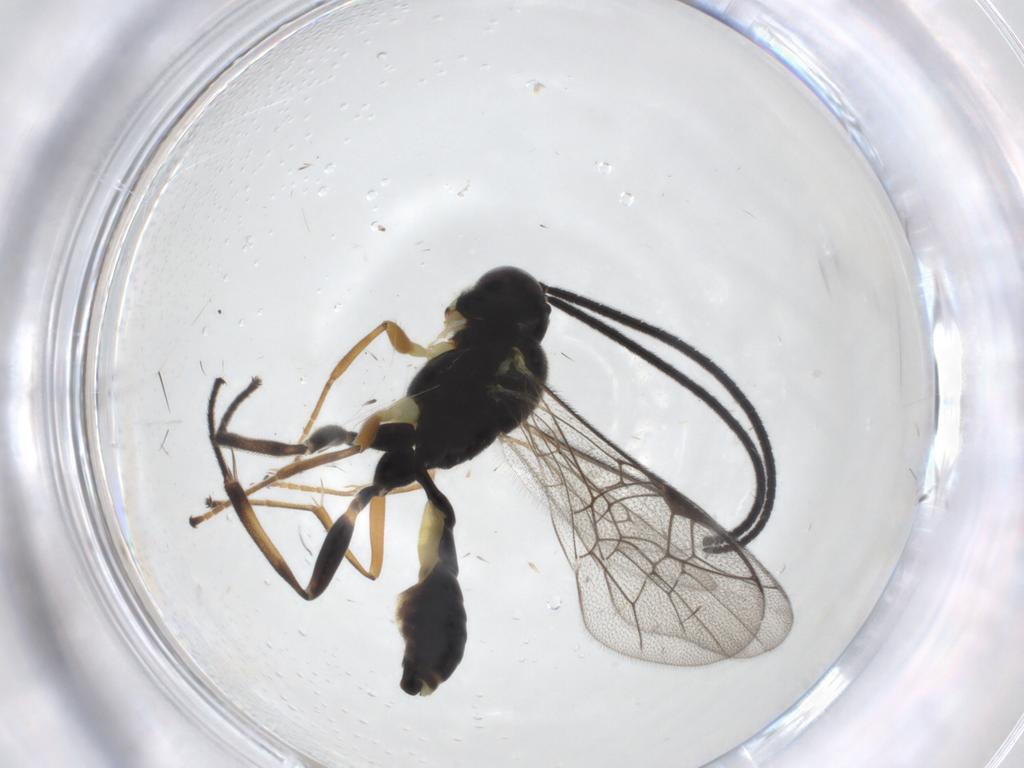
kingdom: Animalia
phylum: Arthropoda
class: Insecta
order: Hymenoptera
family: Ichneumonidae
